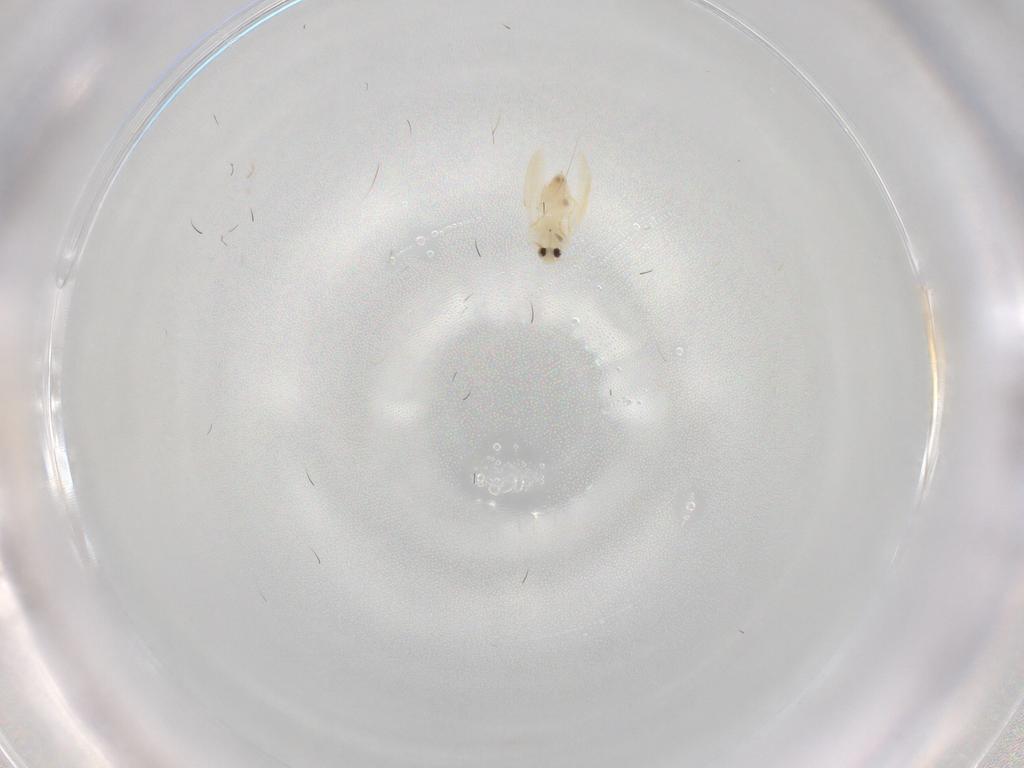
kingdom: Animalia
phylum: Arthropoda
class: Insecta
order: Hemiptera
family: Aleyrodidae
